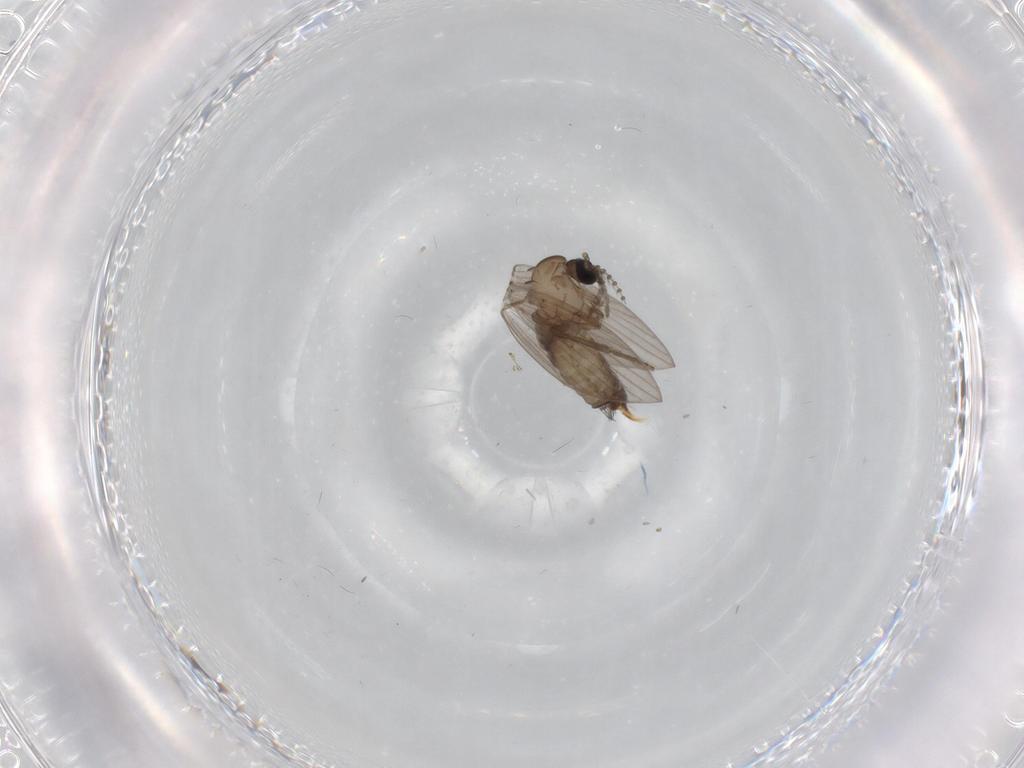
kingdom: Animalia
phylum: Arthropoda
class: Insecta
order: Diptera
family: Psychodidae
